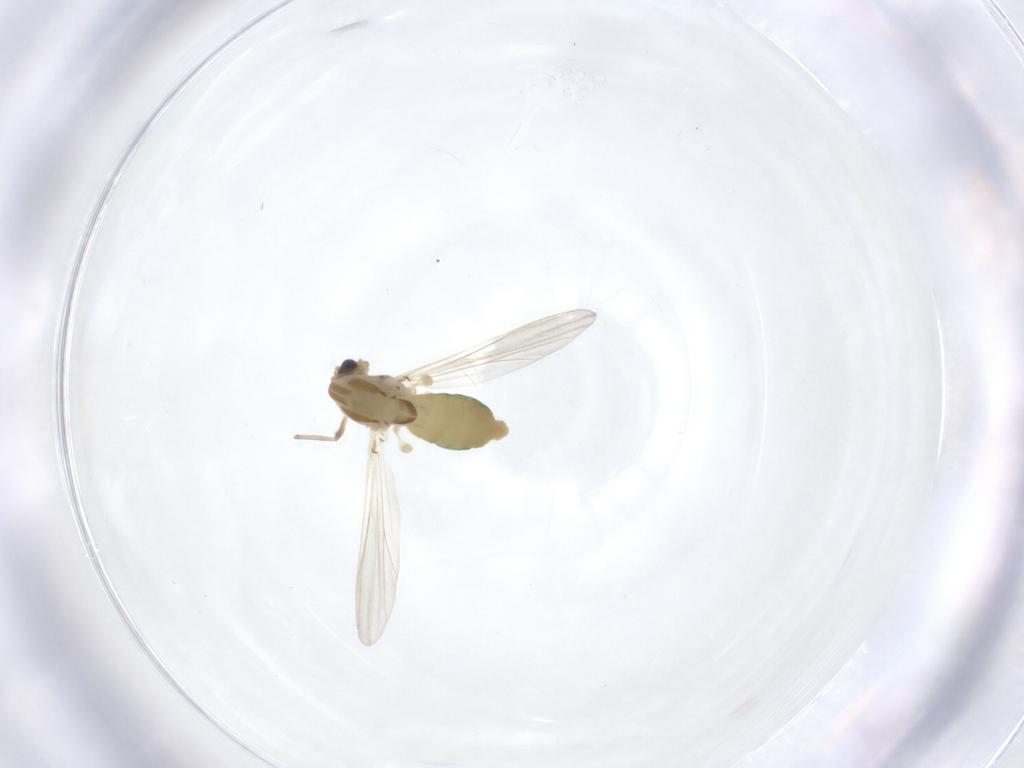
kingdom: Animalia
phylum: Arthropoda
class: Insecta
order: Diptera
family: Chironomidae
